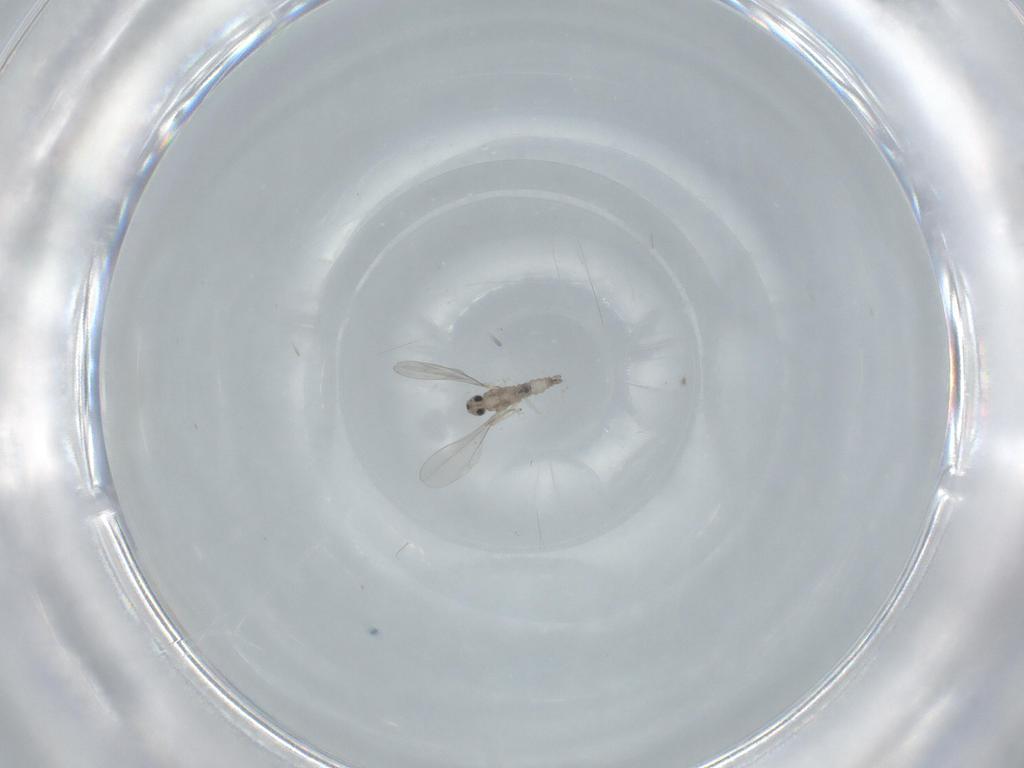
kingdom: Animalia
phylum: Arthropoda
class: Insecta
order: Diptera
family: Cecidomyiidae
